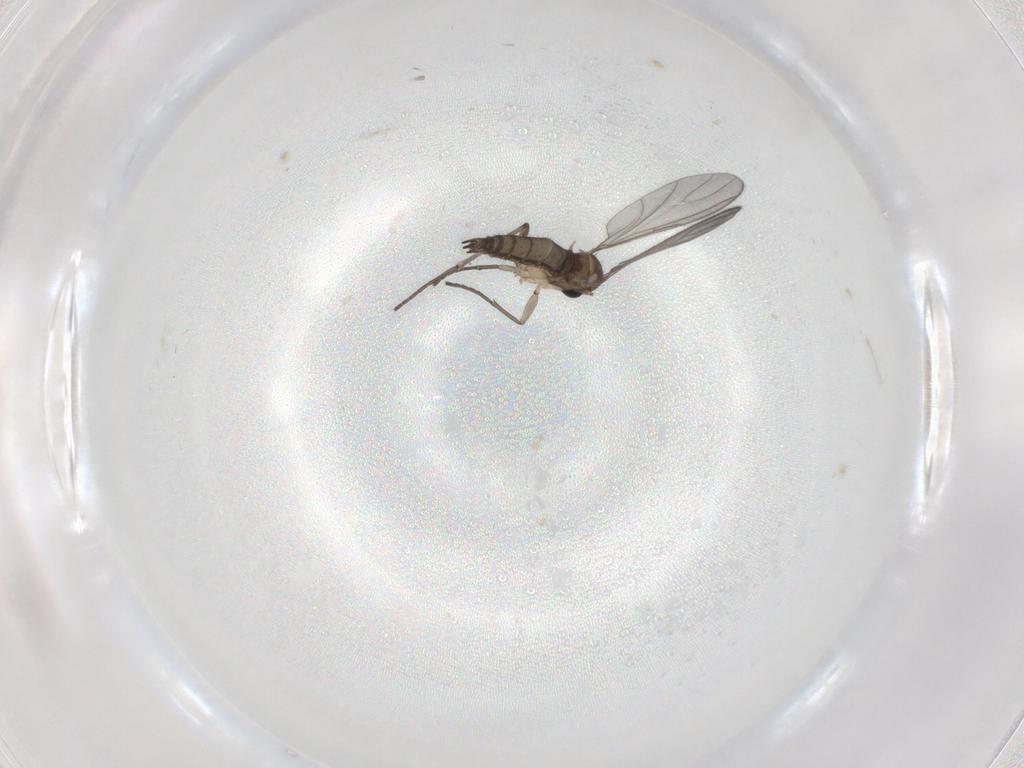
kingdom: Animalia
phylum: Arthropoda
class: Insecta
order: Diptera
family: Sciaridae
